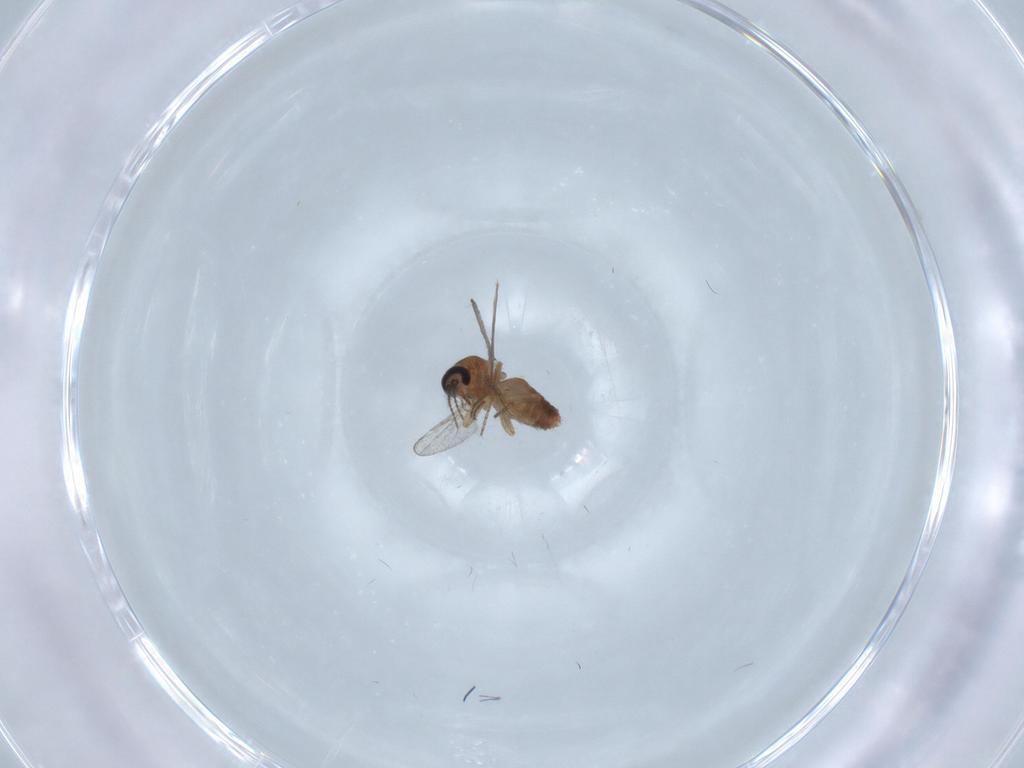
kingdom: Animalia
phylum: Arthropoda
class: Insecta
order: Diptera
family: Ceratopogonidae
